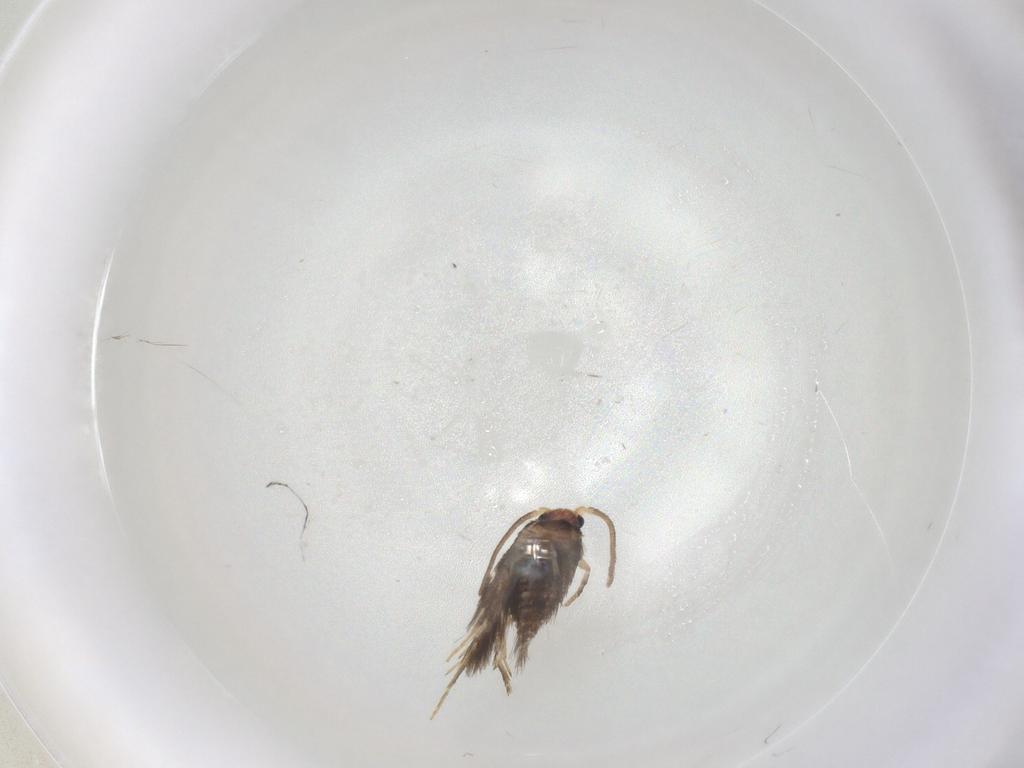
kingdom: Animalia
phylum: Arthropoda
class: Insecta
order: Lepidoptera
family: Nepticulidae
